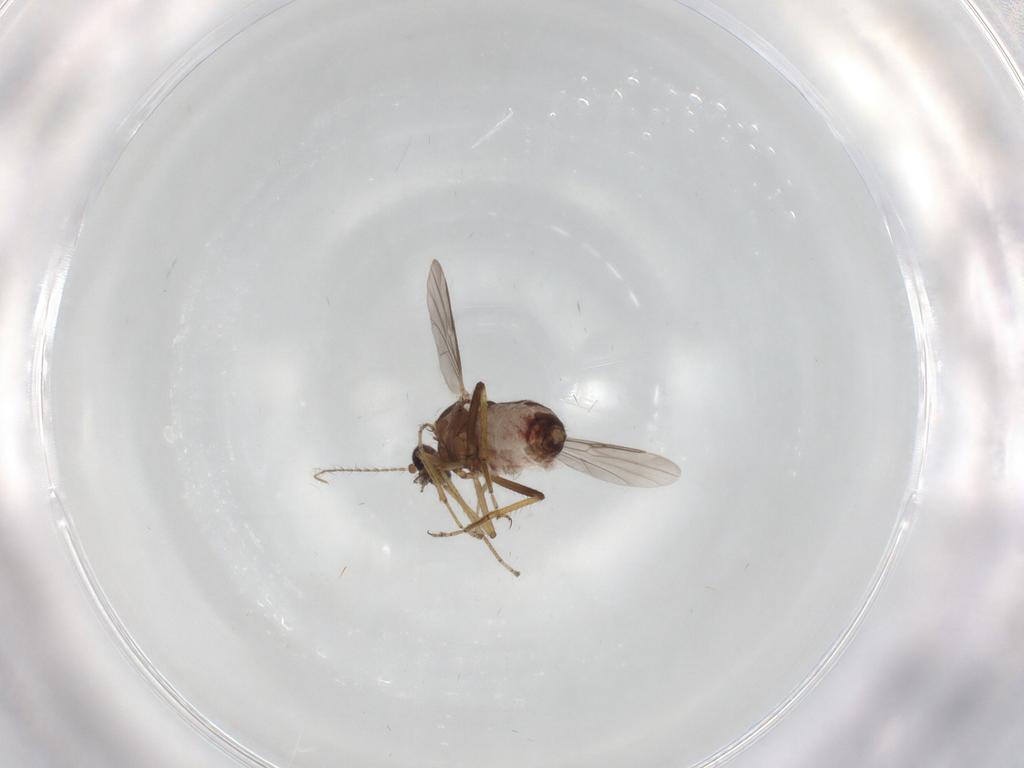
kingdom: Animalia
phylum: Arthropoda
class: Insecta
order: Diptera
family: Ceratopogonidae
